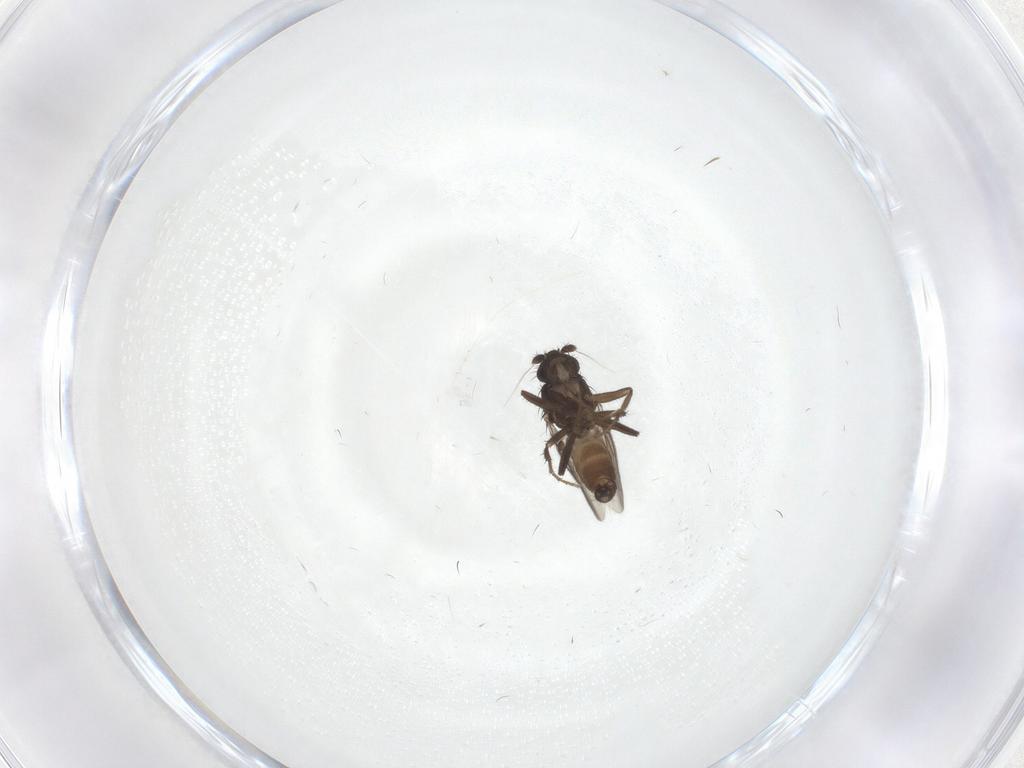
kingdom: Animalia
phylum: Arthropoda
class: Insecta
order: Diptera
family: Sphaeroceridae
